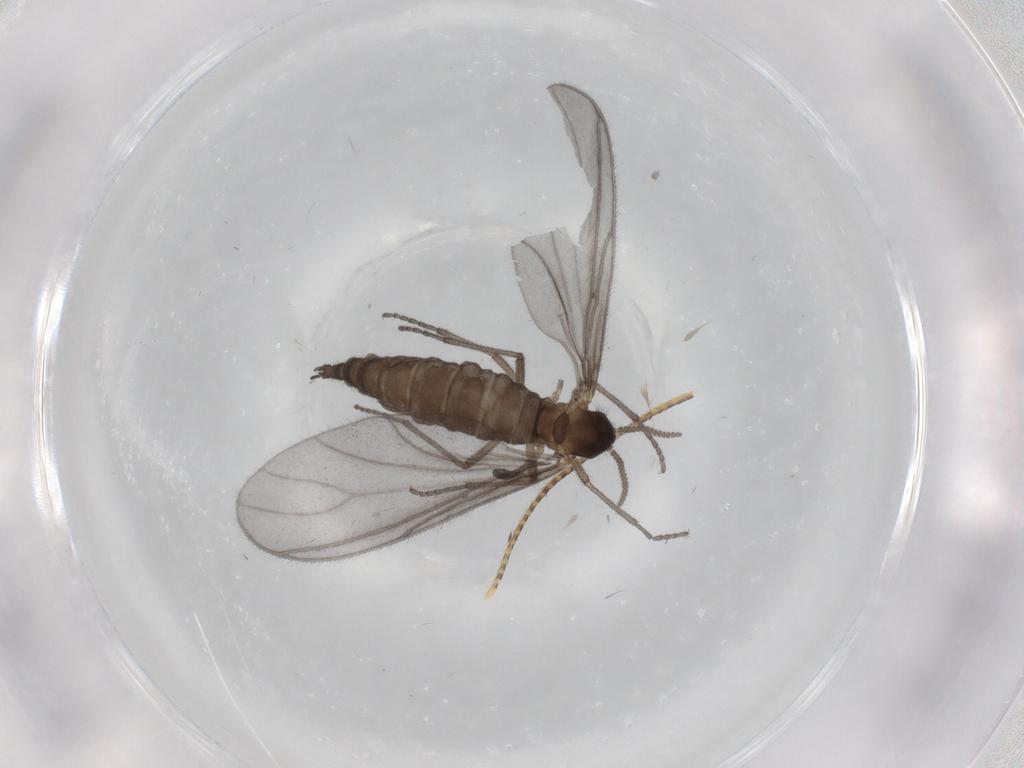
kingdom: Animalia
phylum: Arthropoda
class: Insecta
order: Diptera
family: Sciaridae
